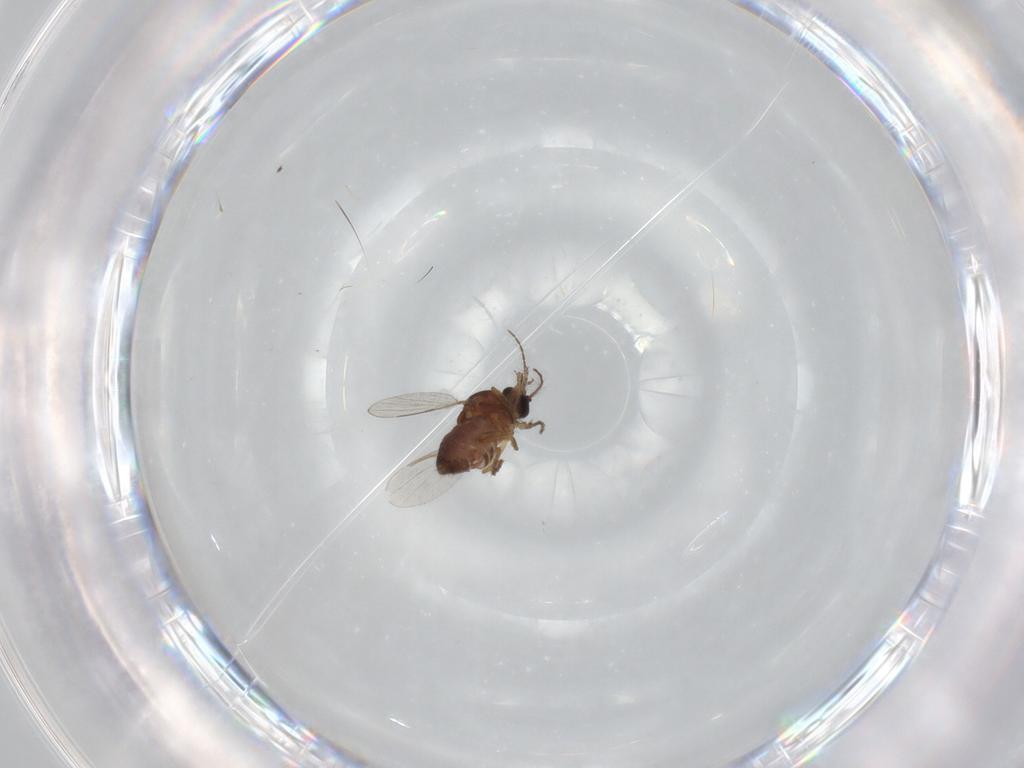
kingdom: Animalia
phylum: Arthropoda
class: Insecta
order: Diptera
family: Ceratopogonidae
